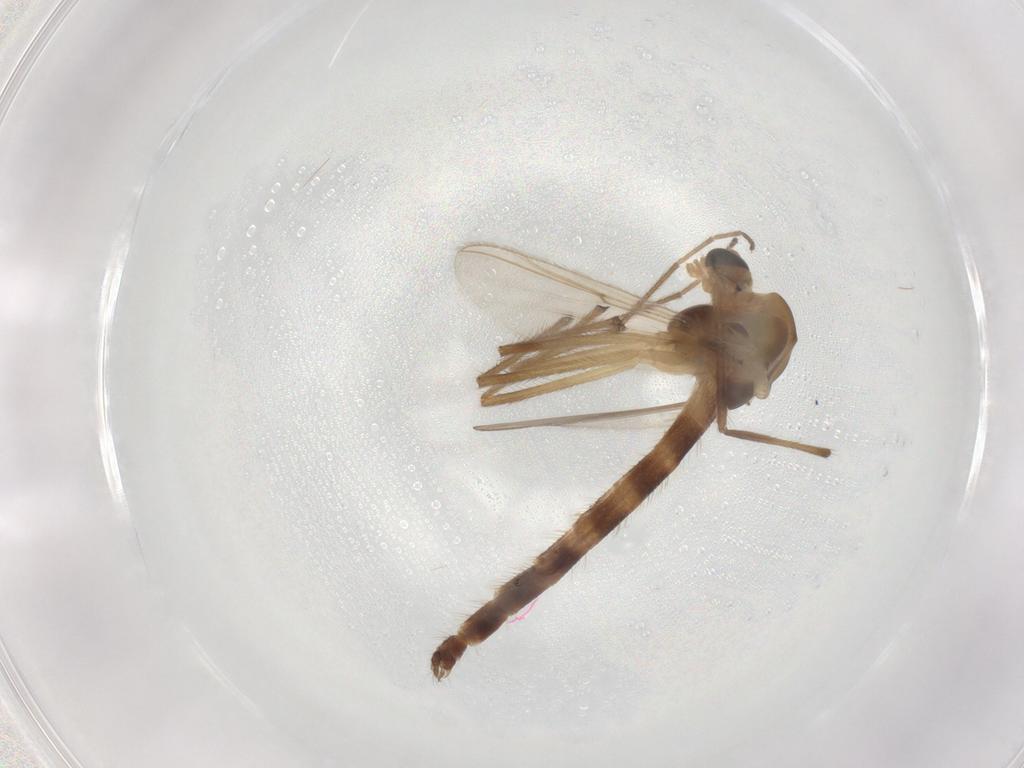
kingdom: Animalia
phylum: Arthropoda
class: Insecta
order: Diptera
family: Chironomidae
